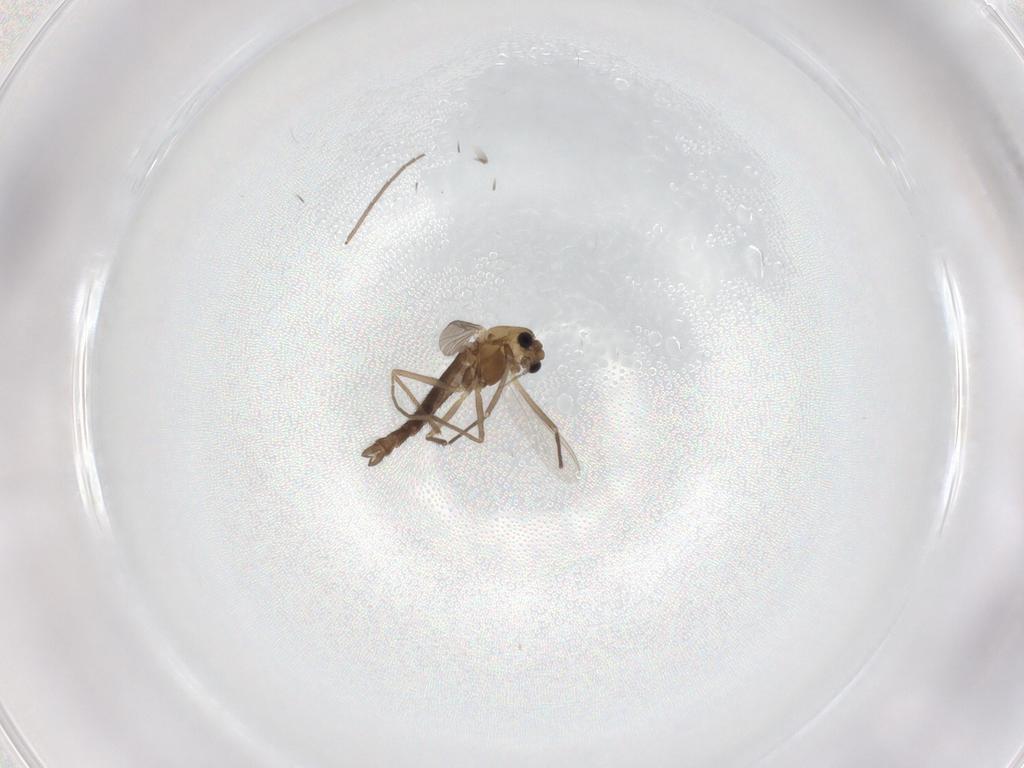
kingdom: Animalia
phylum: Arthropoda
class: Insecta
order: Diptera
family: Chironomidae
